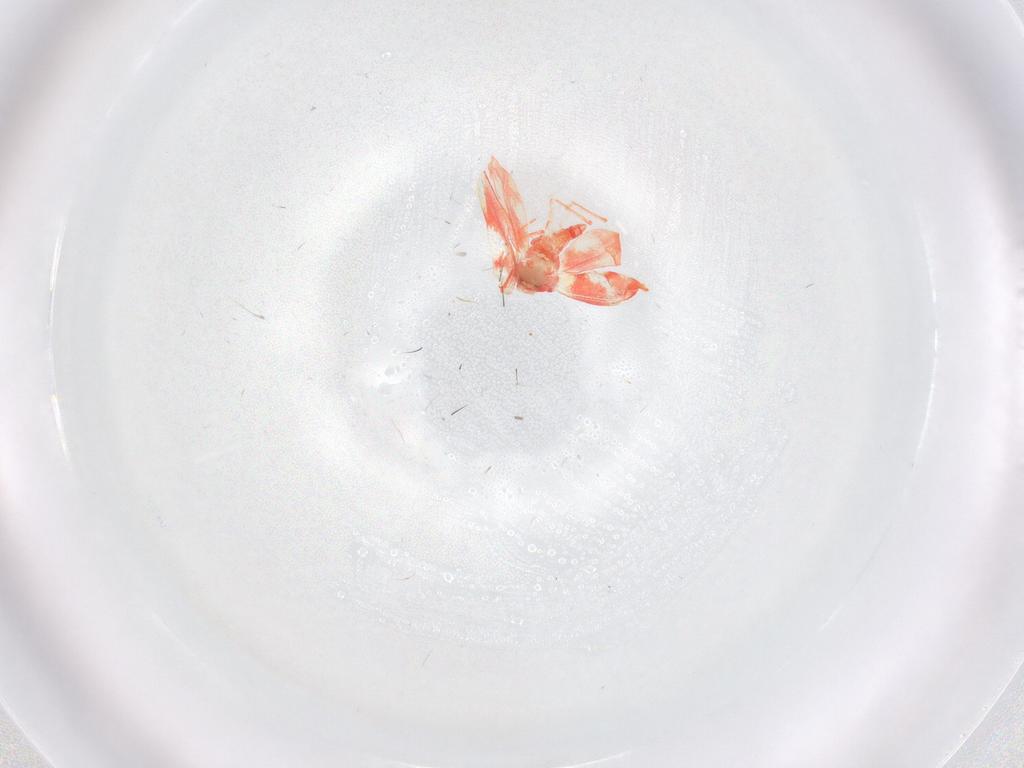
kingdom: Animalia
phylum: Arthropoda
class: Insecta
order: Hemiptera
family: Aleyrodidae
